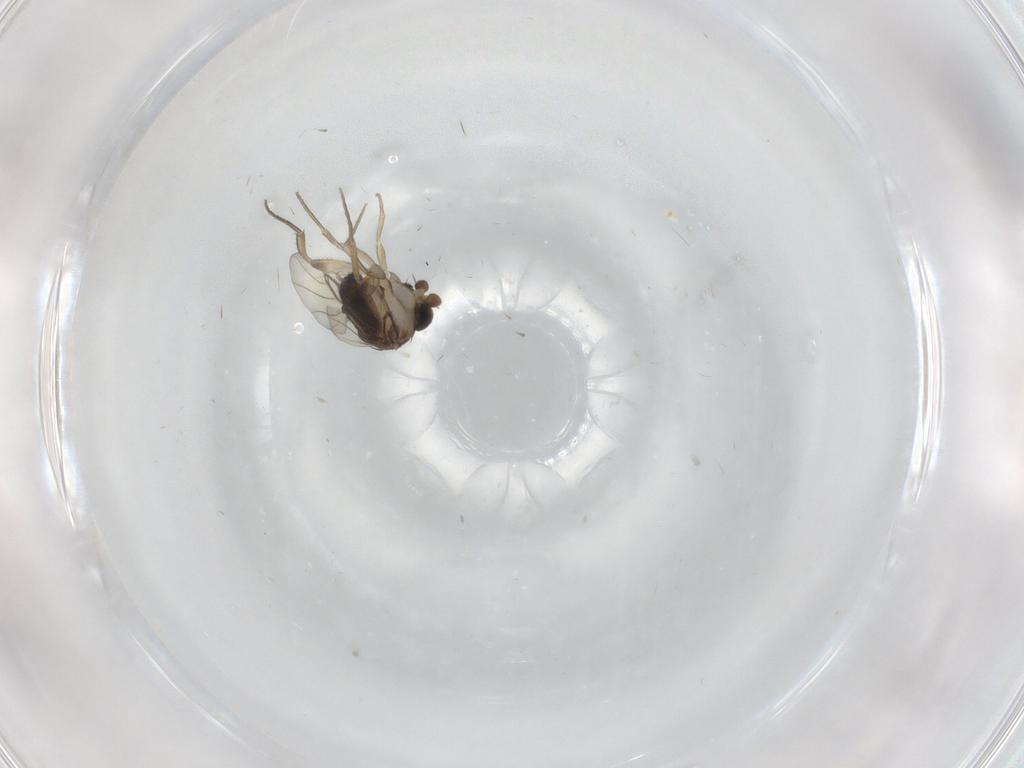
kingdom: Animalia
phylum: Arthropoda
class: Insecta
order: Diptera
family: Phoridae
